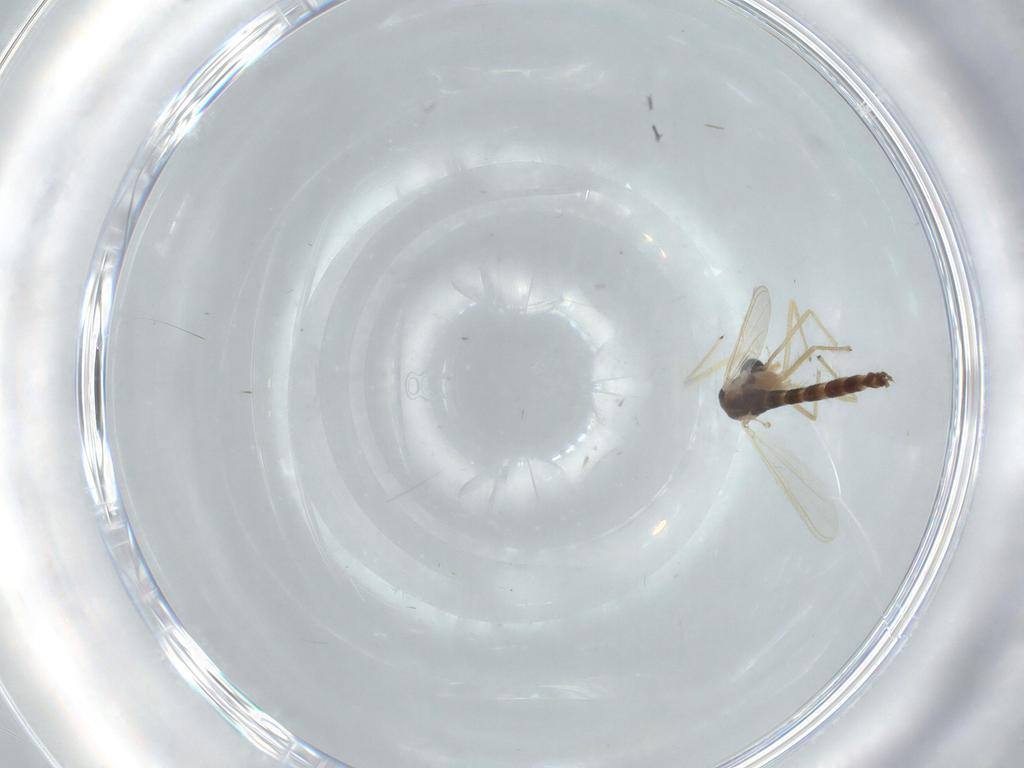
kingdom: Animalia
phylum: Arthropoda
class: Insecta
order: Diptera
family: Chironomidae
